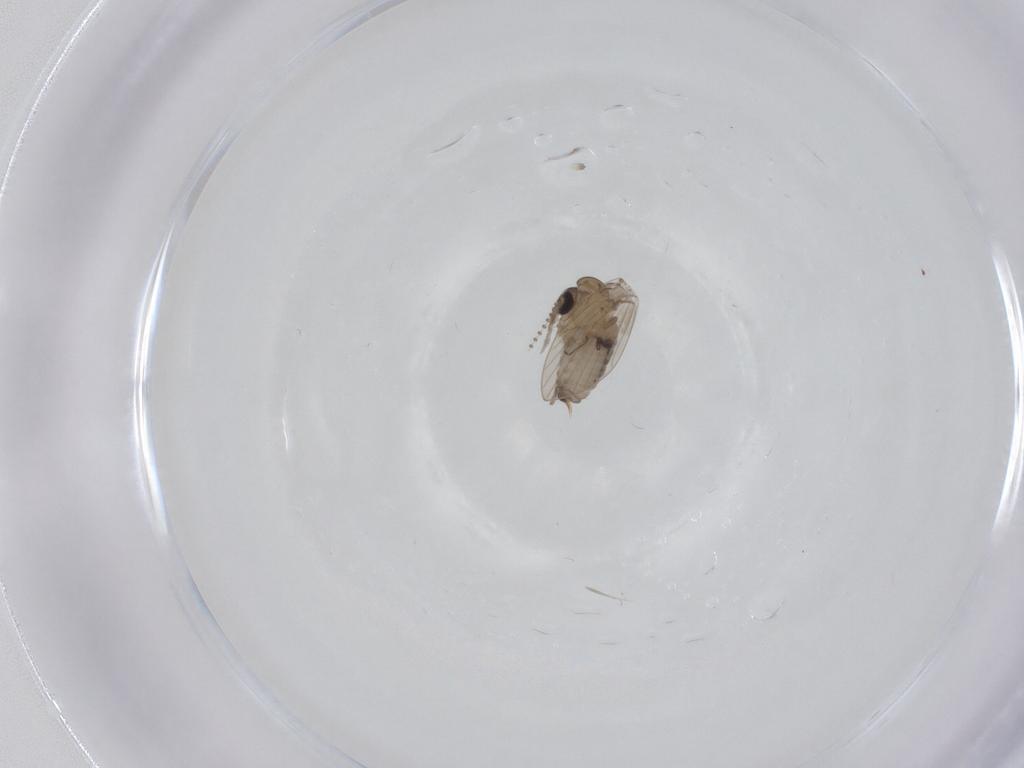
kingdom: Animalia
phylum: Arthropoda
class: Insecta
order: Diptera
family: Psychodidae
